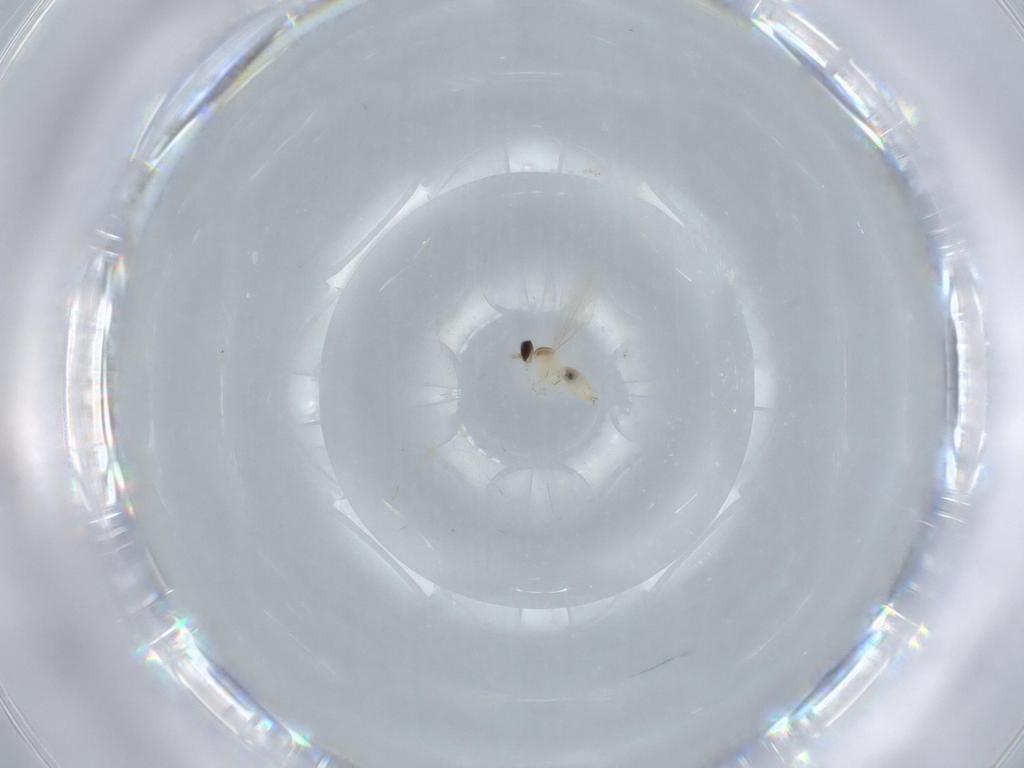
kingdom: Animalia
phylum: Arthropoda
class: Insecta
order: Diptera
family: Cecidomyiidae
